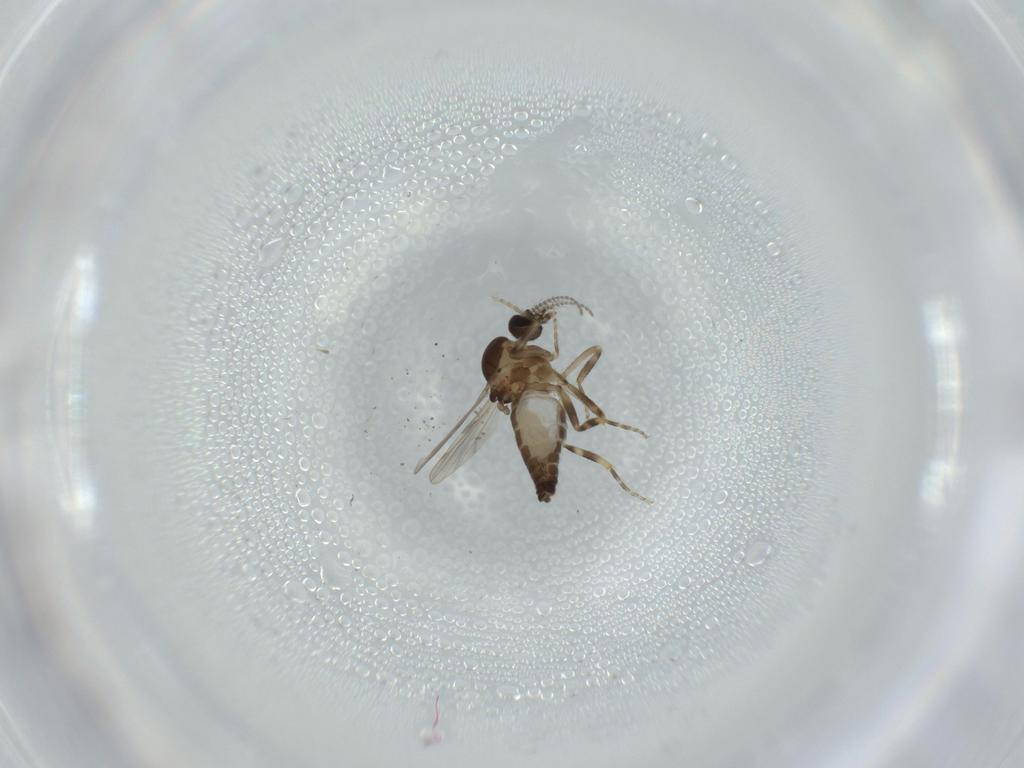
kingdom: Animalia
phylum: Arthropoda
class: Insecta
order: Diptera
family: Ceratopogonidae
